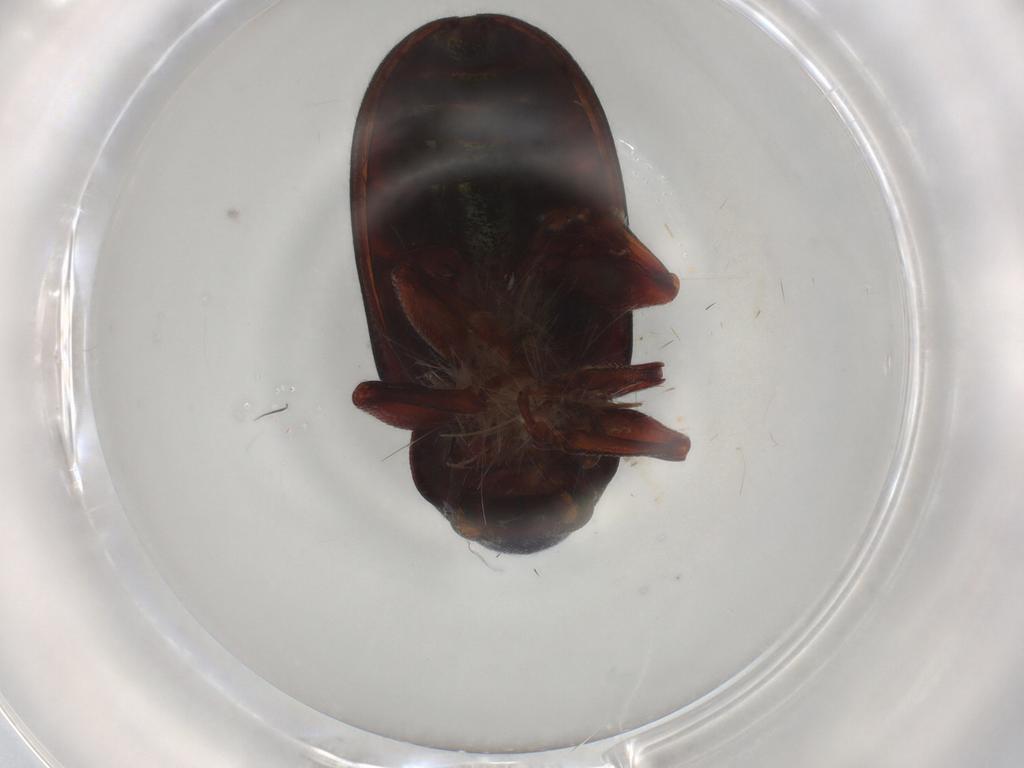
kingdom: Animalia
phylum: Arthropoda
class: Insecta
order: Coleoptera
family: Chrysomelidae
